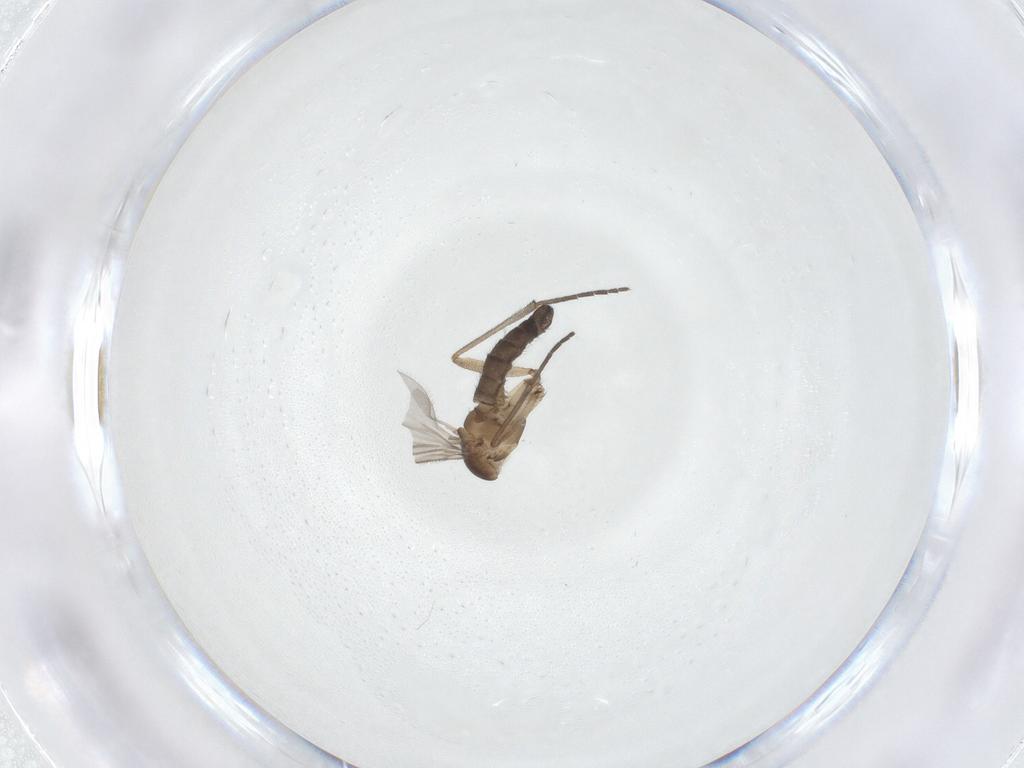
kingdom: Animalia
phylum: Arthropoda
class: Insecta
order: Diptera
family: Sciaridae
